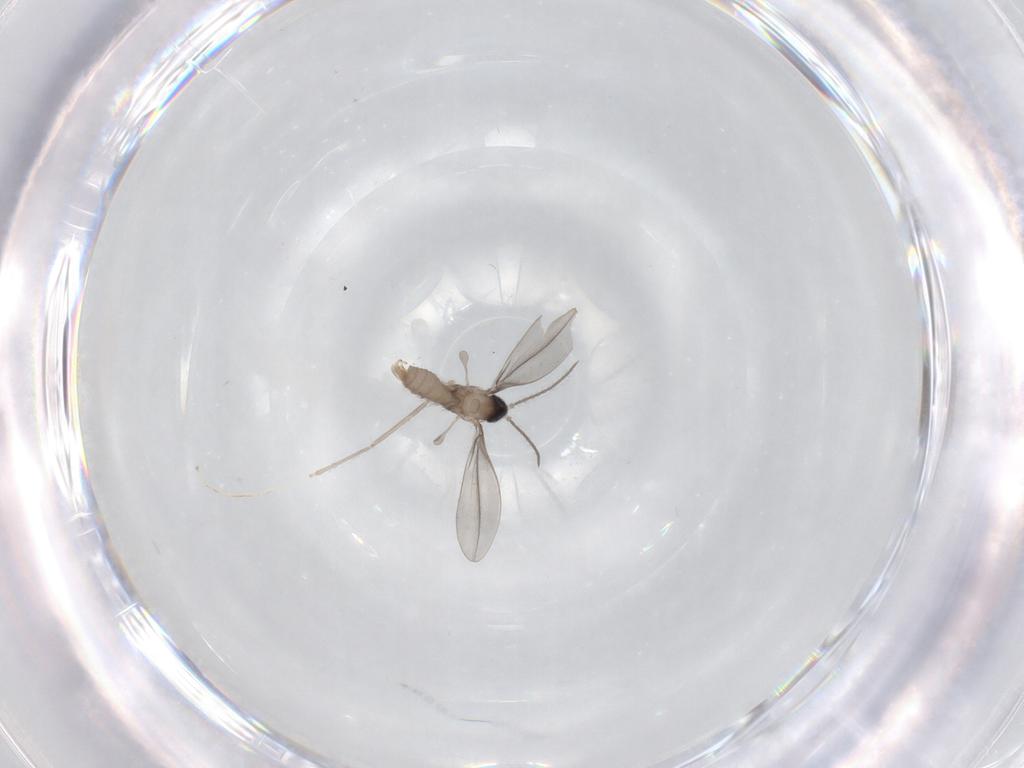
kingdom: Animalia
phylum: Arthropoda
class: Insecta
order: Diptera
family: Cecidomyiidae
